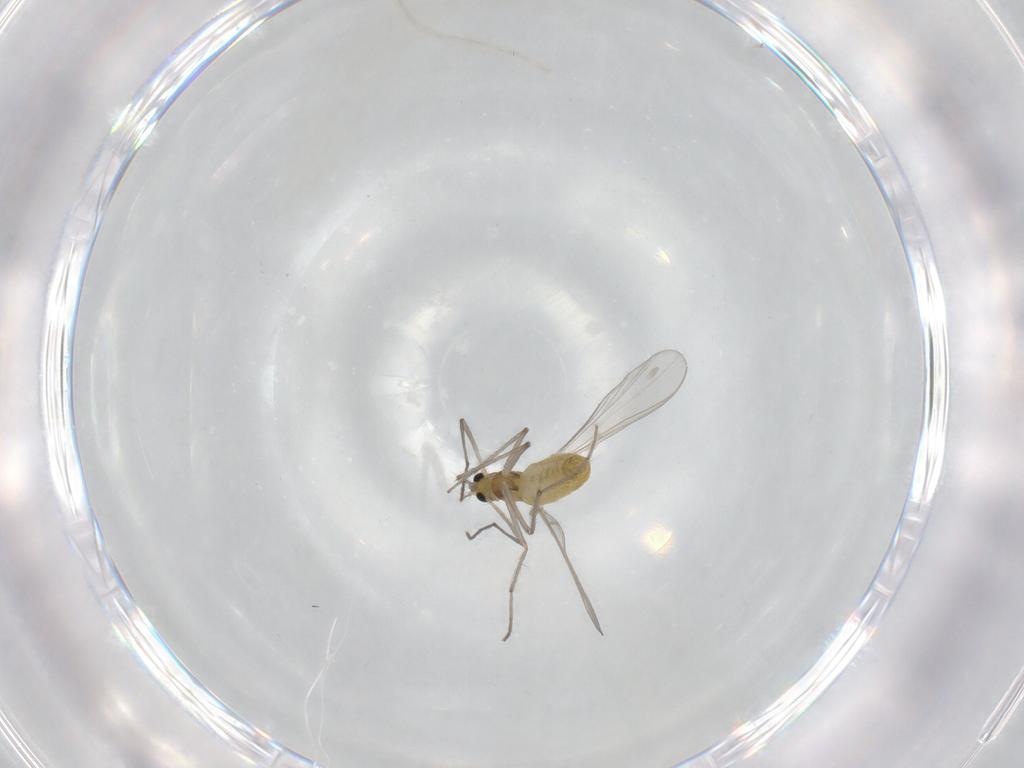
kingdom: Animalia
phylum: Arthropoda
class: Insecta
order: Diptera
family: Chironomidae
